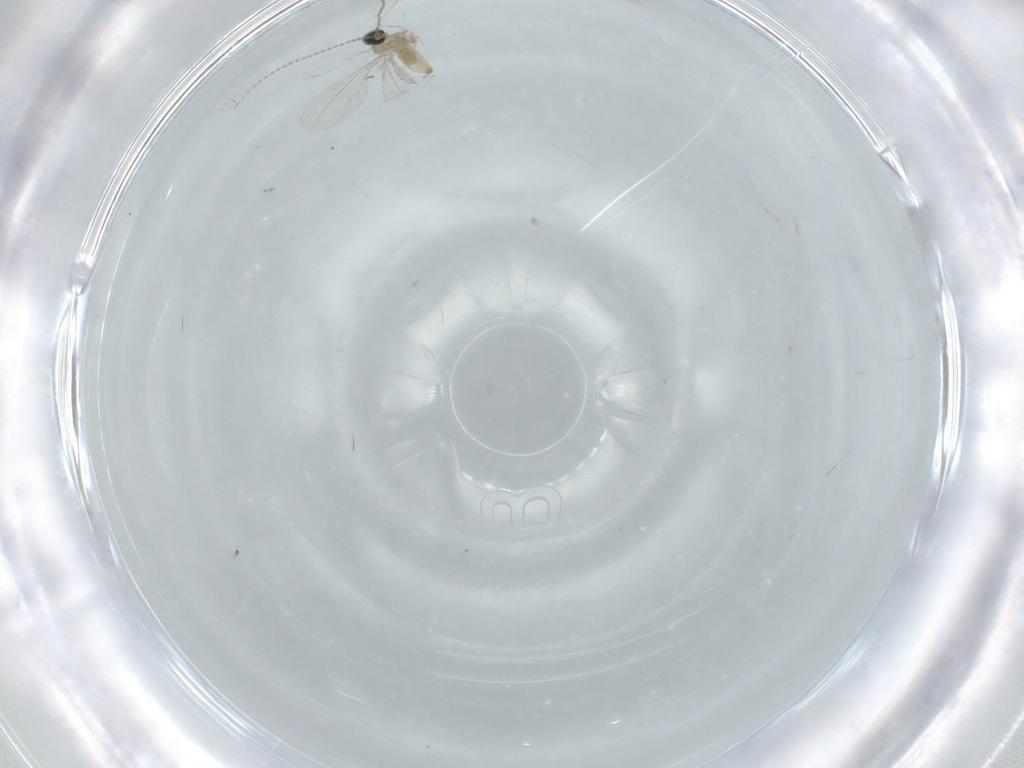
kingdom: Animalia
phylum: Arthropoda
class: Insecta
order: Diptera
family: Cecidomyiidae
